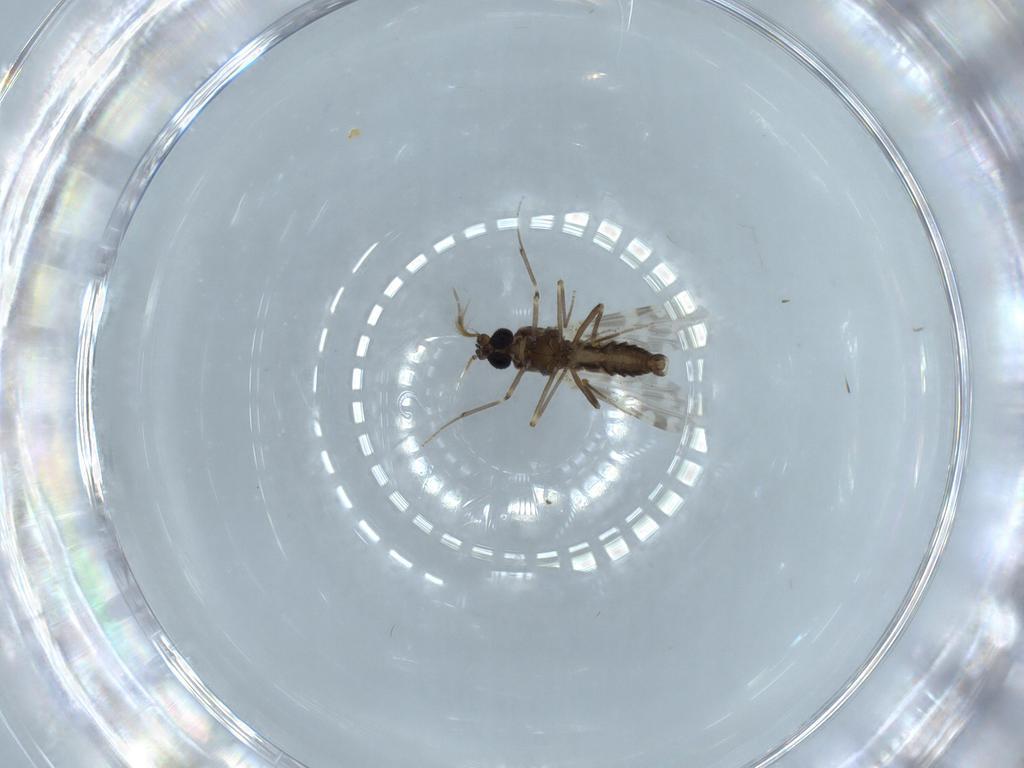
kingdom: Animalia
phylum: Arthropoda
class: Insecta
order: Diptera
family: Ceratopogonidae
